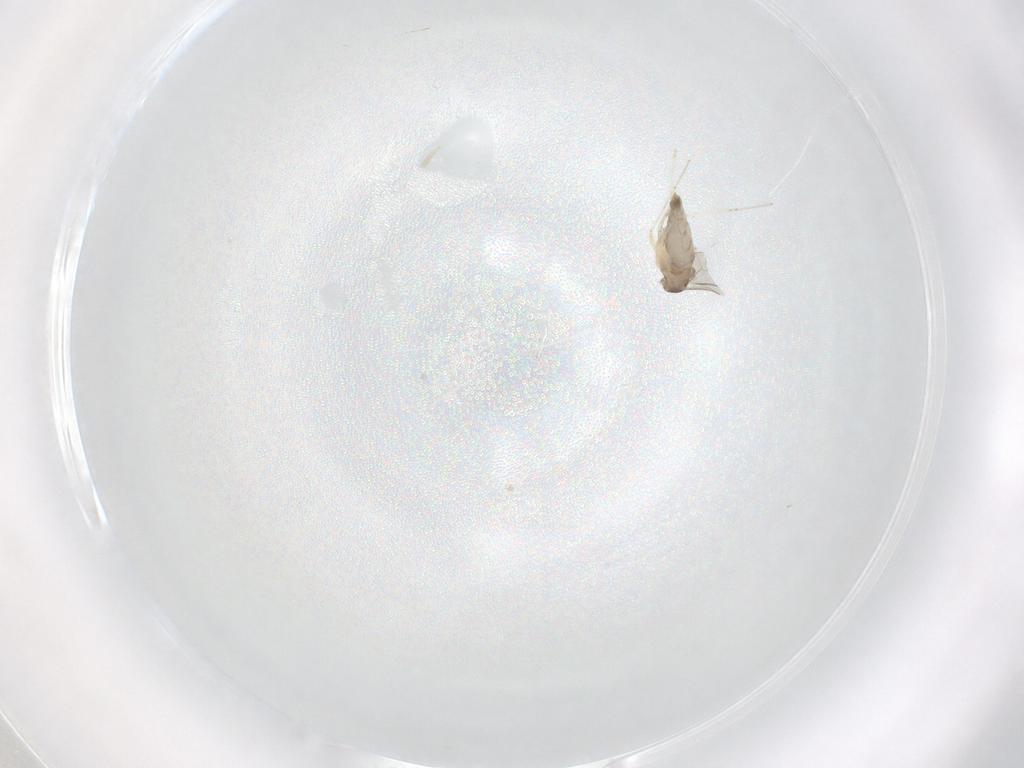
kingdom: Animalia
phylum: Arthropoda
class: Insecta
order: Diptera
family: Cecidomyiidae
